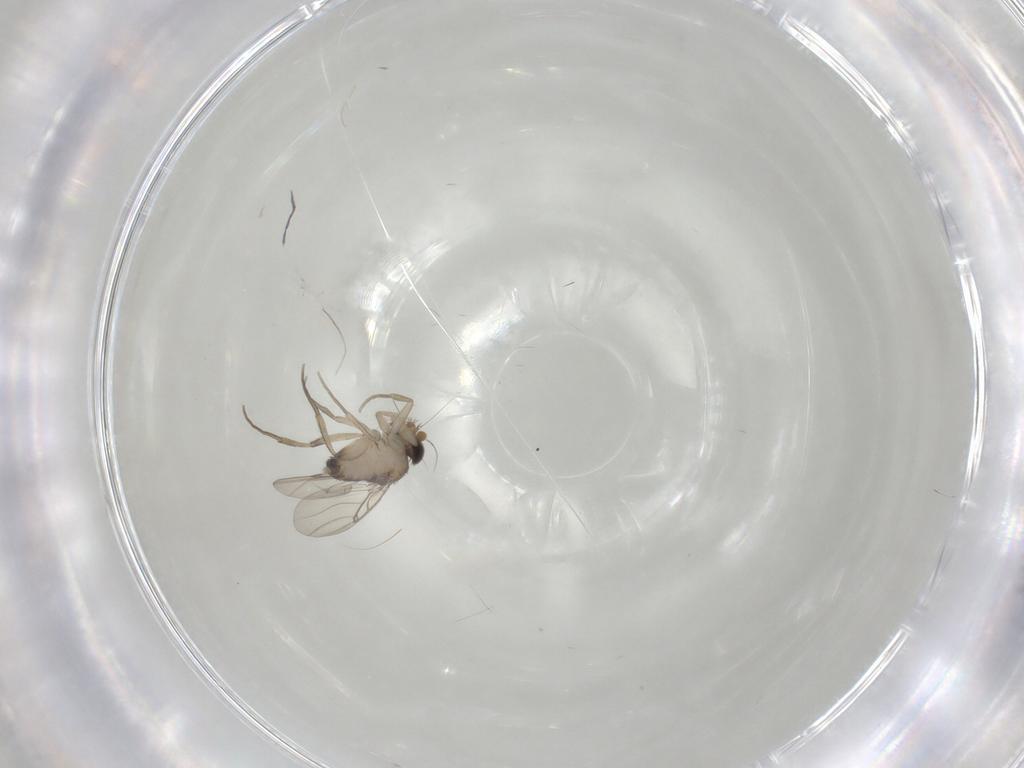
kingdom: Animalia
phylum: Arthropoda
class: Insecta
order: Diptera
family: Phoridae
